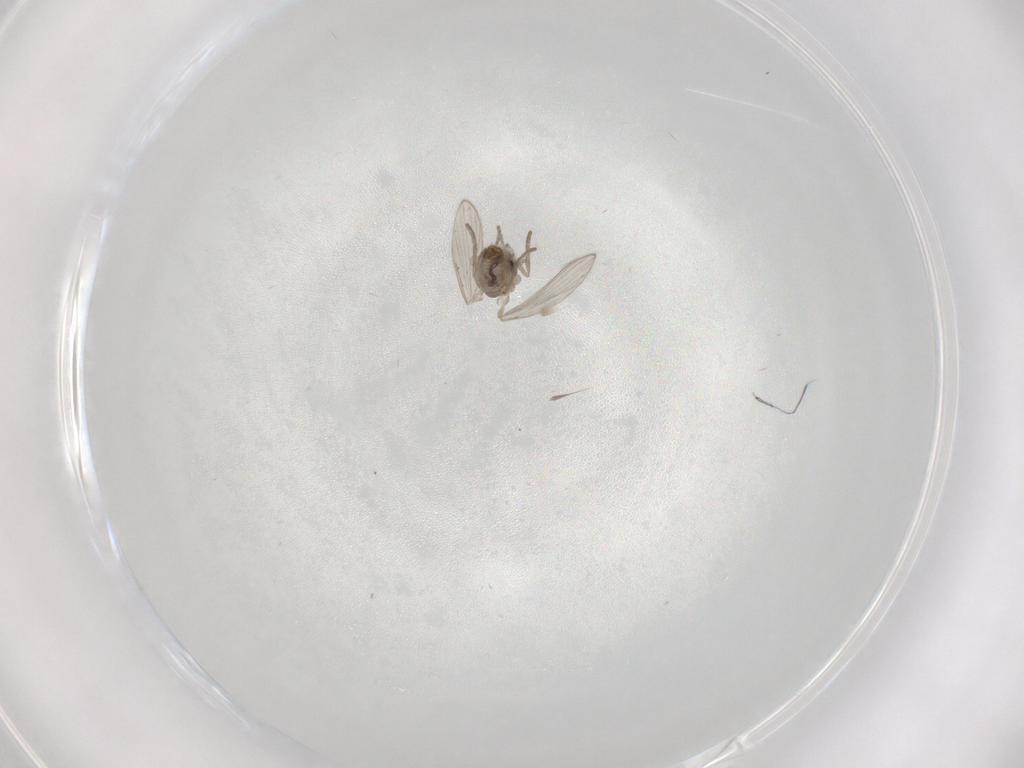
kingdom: Animalia
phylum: Arthropoda
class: Insecta
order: Diptera
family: Psychodidae
